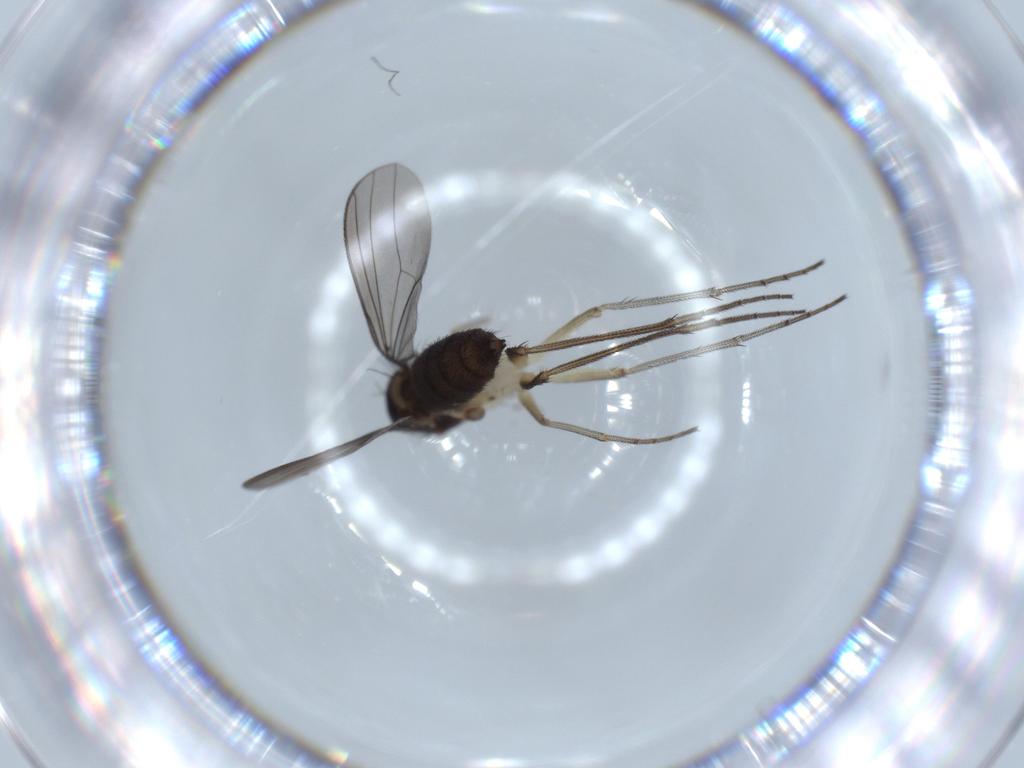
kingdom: Animalia
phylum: Arthropoda
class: Insecta
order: Diptera
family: Dolichopodidae
